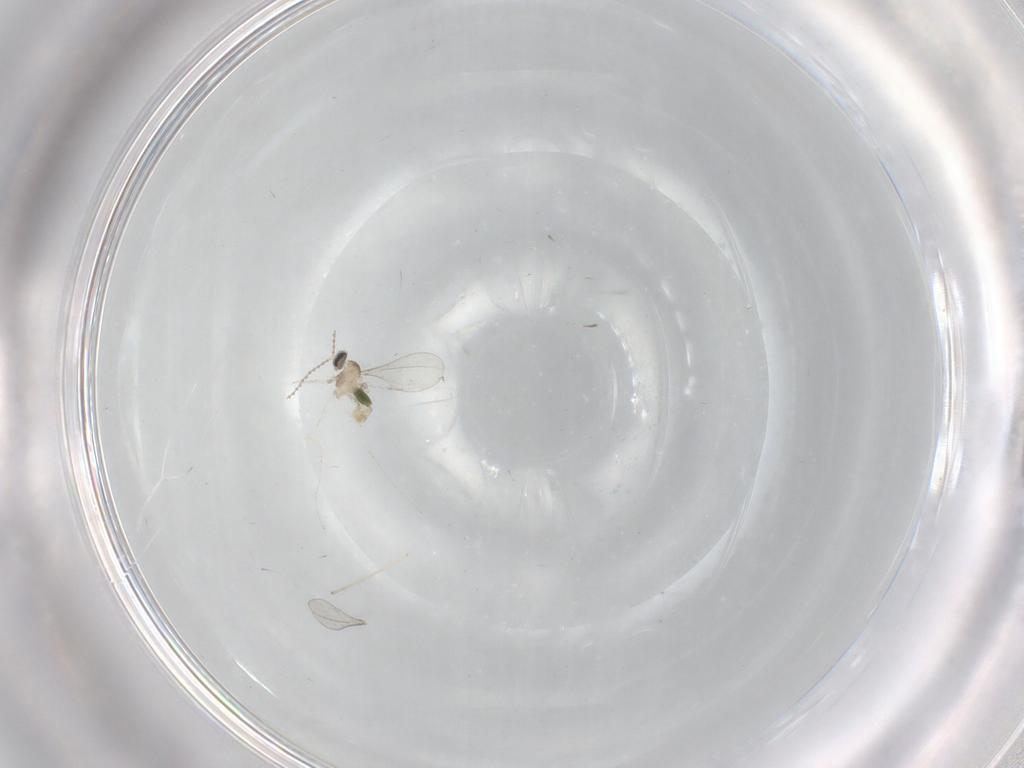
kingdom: Animalia
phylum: Arthropoda
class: Insecta
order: Diptera
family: Cecidomyiidae
